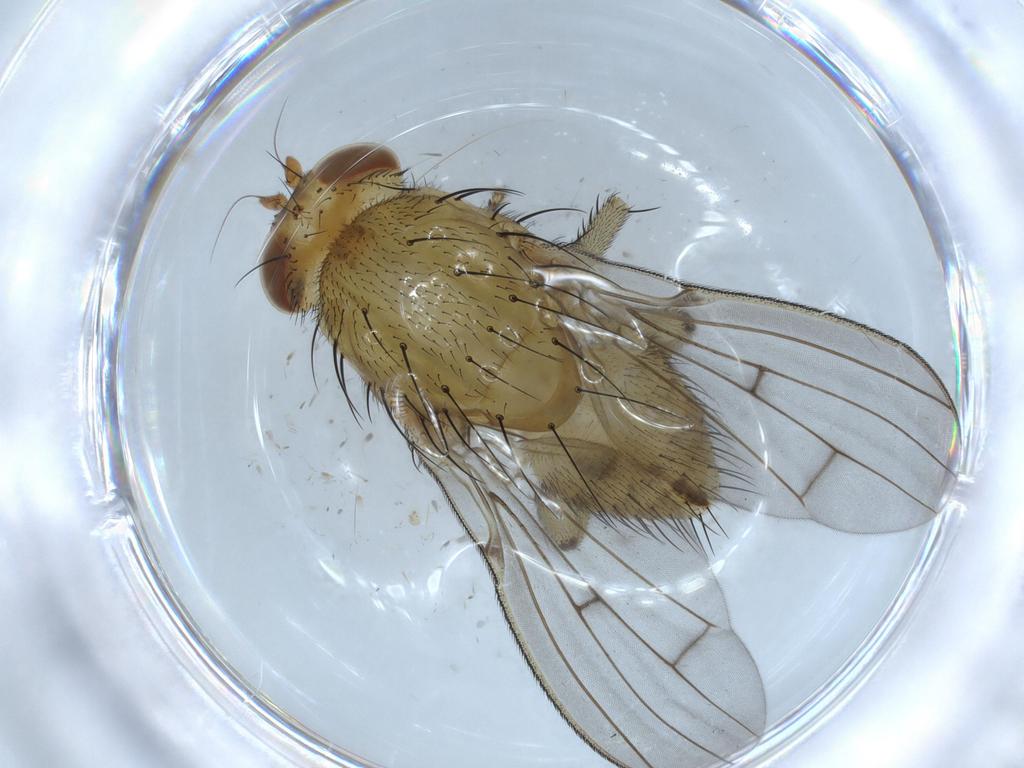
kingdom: Animalia
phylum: Arthropoda
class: Insecta
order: Diptera
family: Chironomidae
